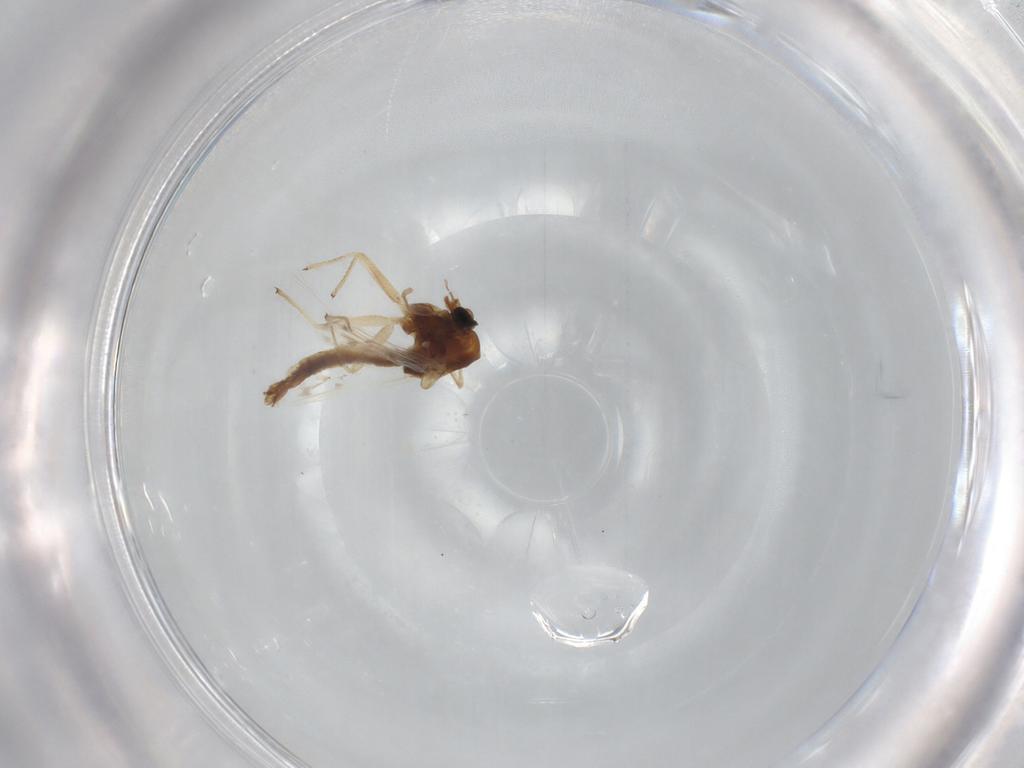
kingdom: Animalia
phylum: Arthropoda
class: Insecta
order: Diptera
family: Chironomidae
